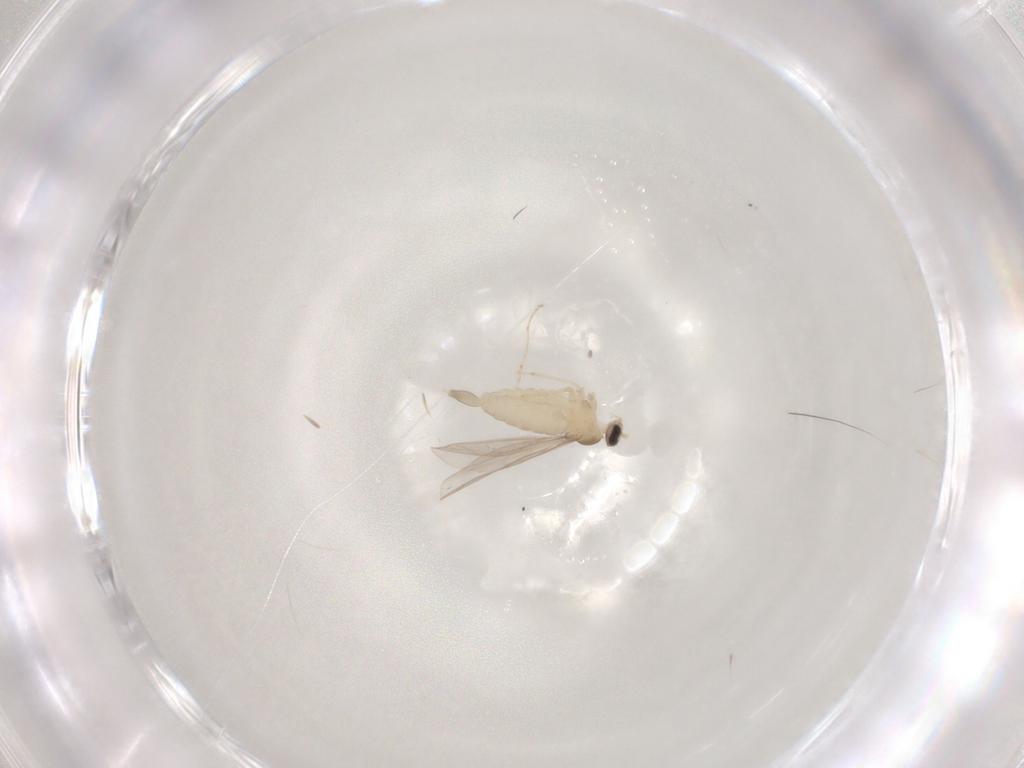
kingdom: Animalia
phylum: Arthropoda
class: Insecta
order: Diptera
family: Cecidomyiidae
